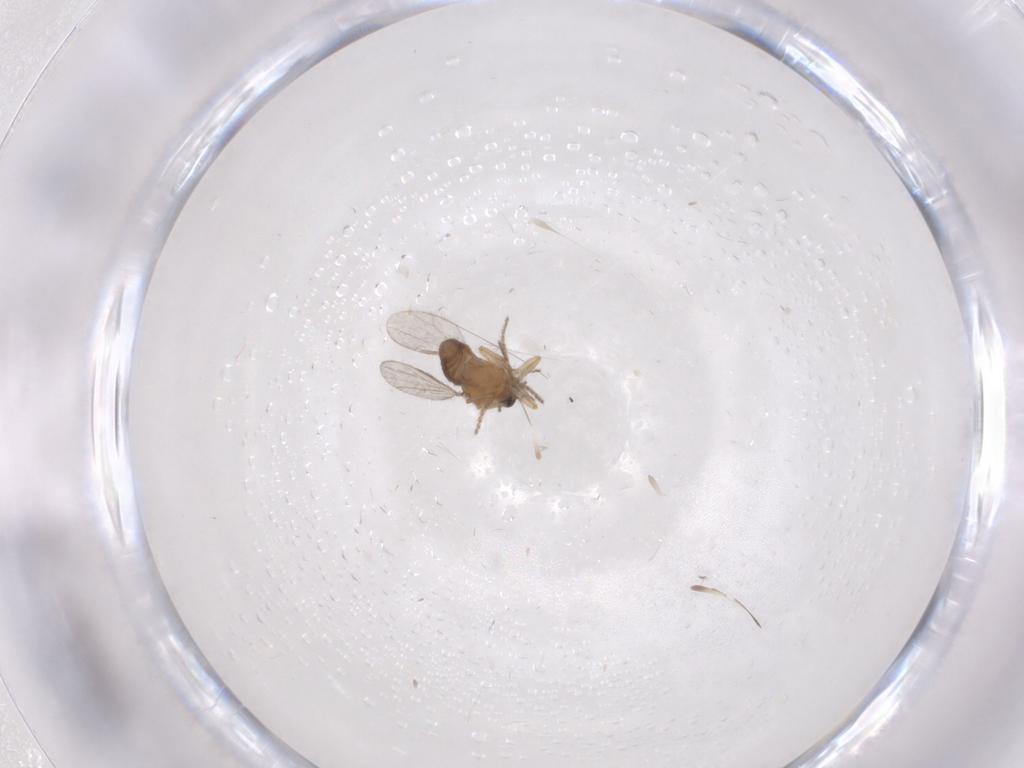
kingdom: Animalia
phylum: Arthropoda
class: Insecta
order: Diptera
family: Ceratopogonidae
